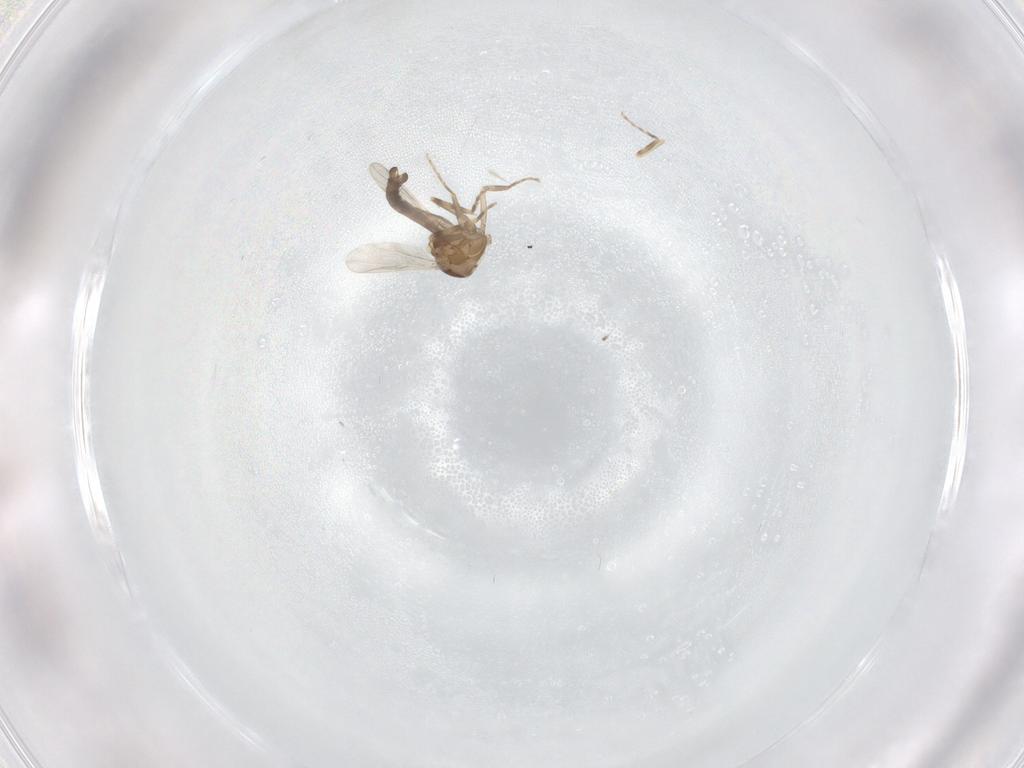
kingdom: Animalia
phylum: Arthropoda
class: Insecta
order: Diptera
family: Ceratopogonidae
